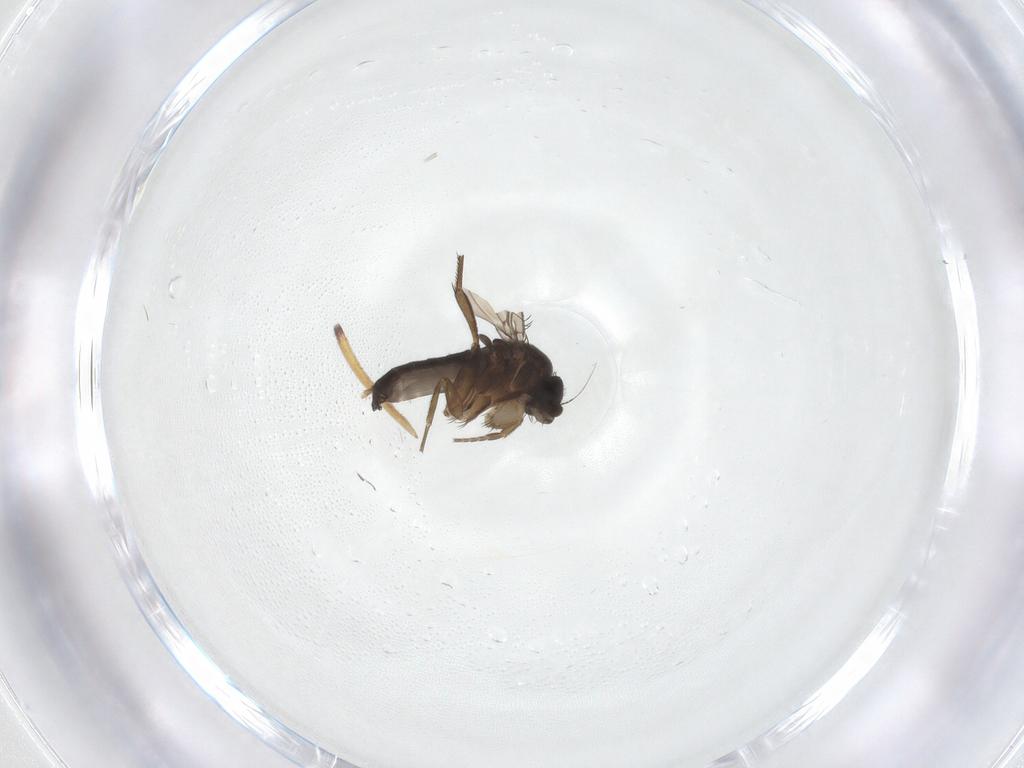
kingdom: Animalia
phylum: Arthropoda
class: Insecta
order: Diptera
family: Phoridae
